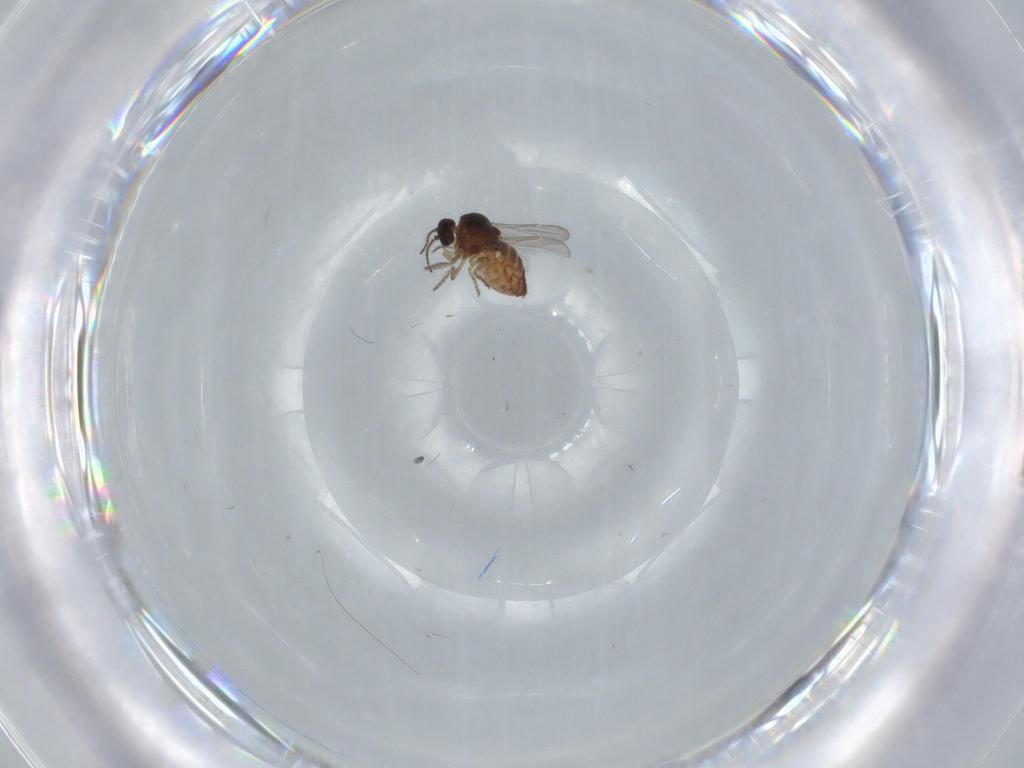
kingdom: Animalia
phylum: Arthropoda
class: Insecta
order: Diptera
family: Ceratopogonidae
